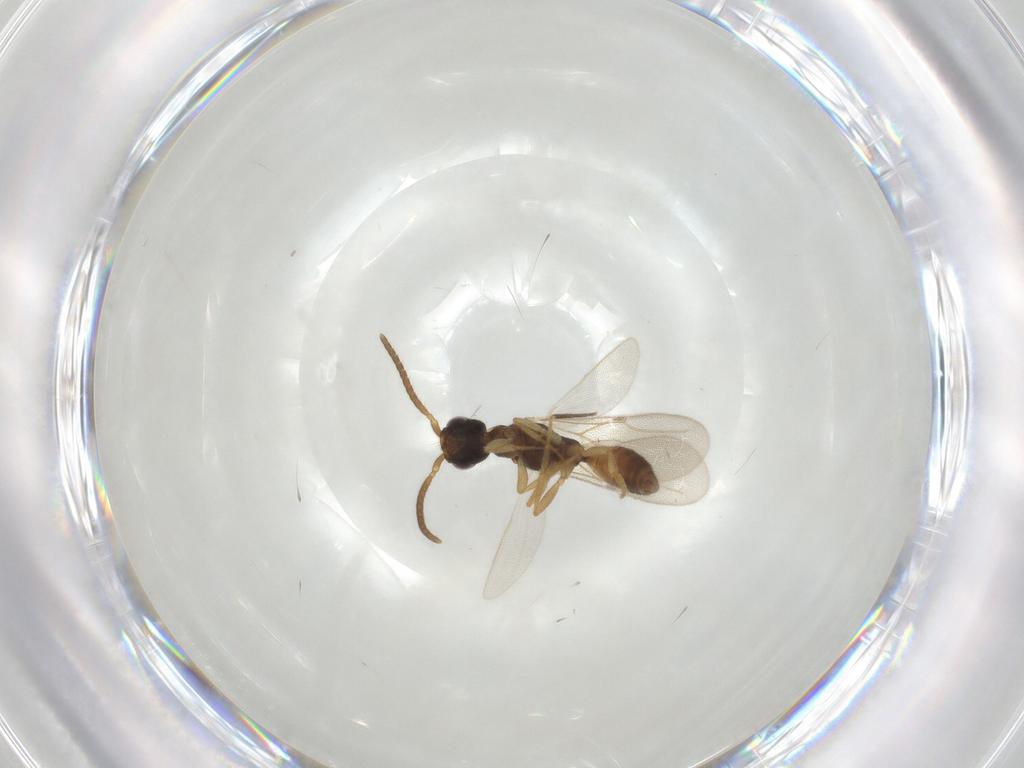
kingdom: Animalia
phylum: Arthropoda
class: Insecta
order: Hymenoptera
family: Bethylidae
